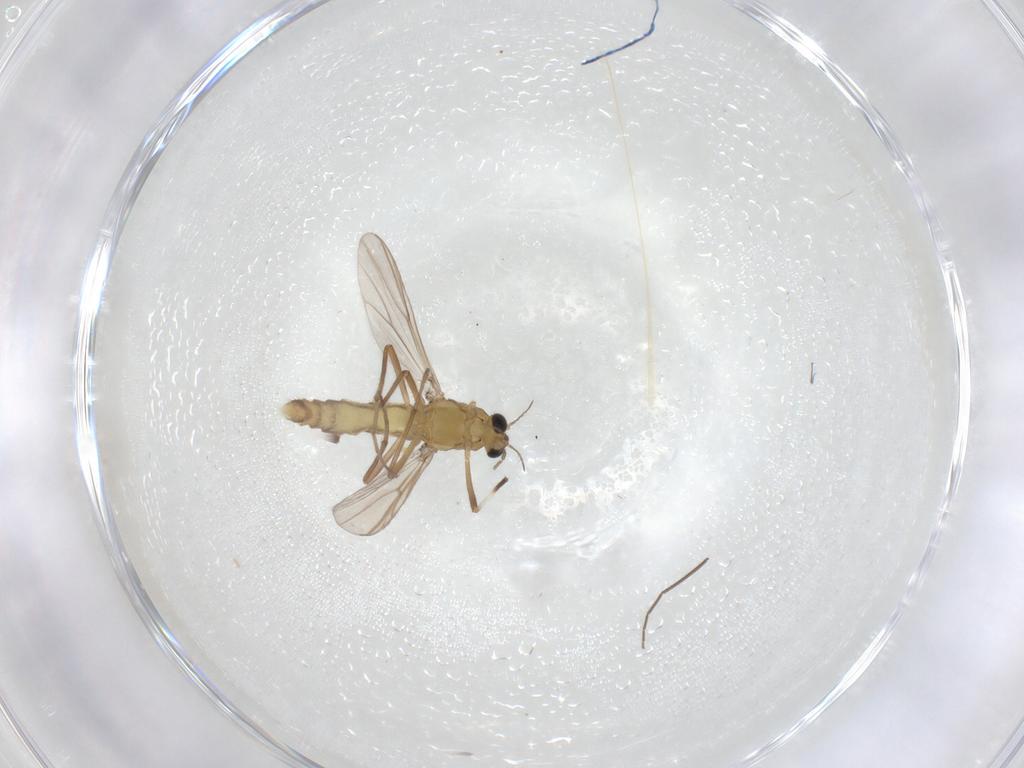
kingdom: Animalia
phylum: Arthropoda
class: Insecta
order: Diptera
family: Chironomidae
